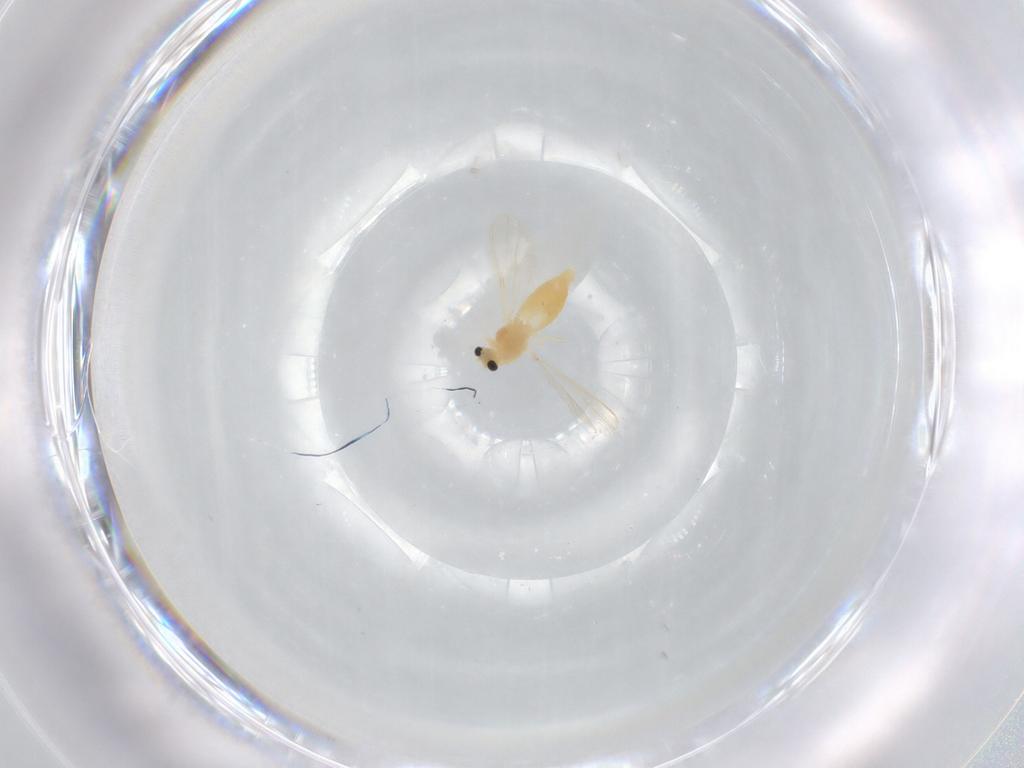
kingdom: Animalia
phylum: Arthropoda
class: Insecta
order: Diptera
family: Chironomidae
